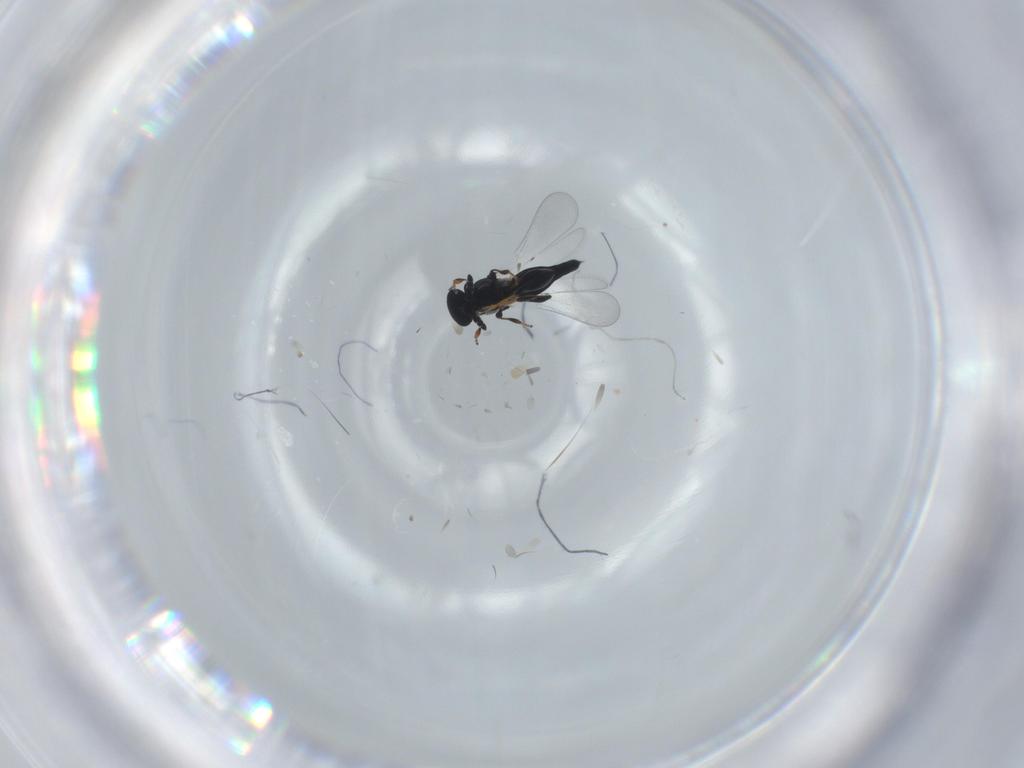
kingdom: Animalia
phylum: Arthropoda
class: Insecta
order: Hymenoptera
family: Platygastridae
